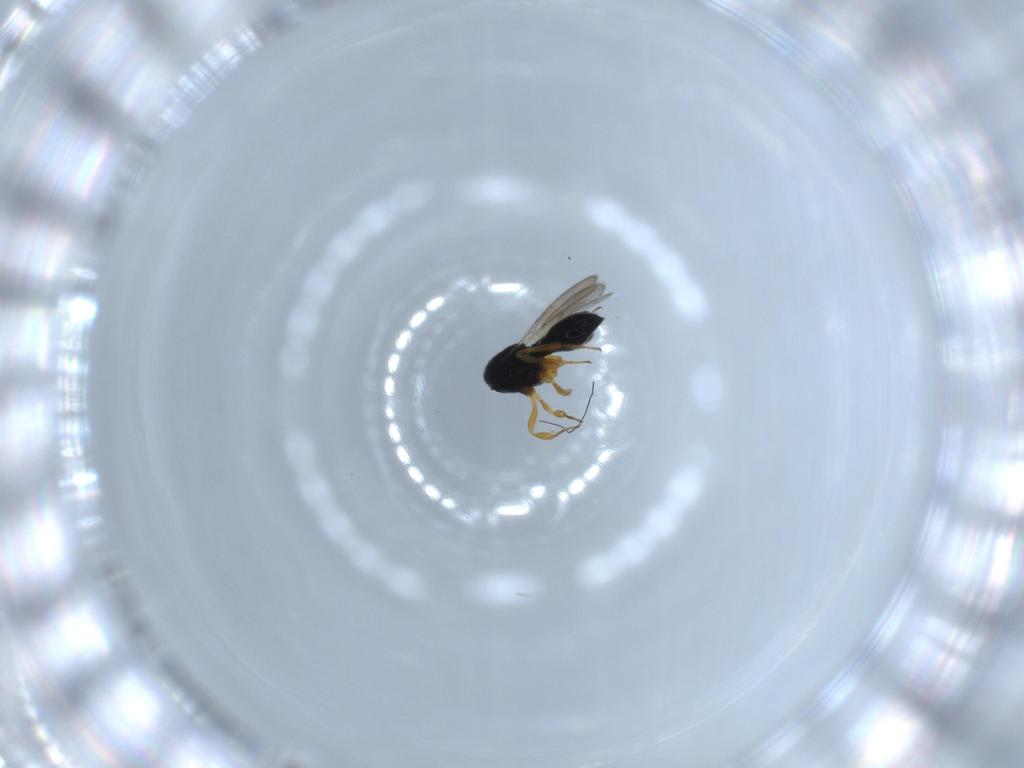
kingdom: Animalia
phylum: Arthropoda
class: Insecta
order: Hymenoptera
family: Scelionidae
